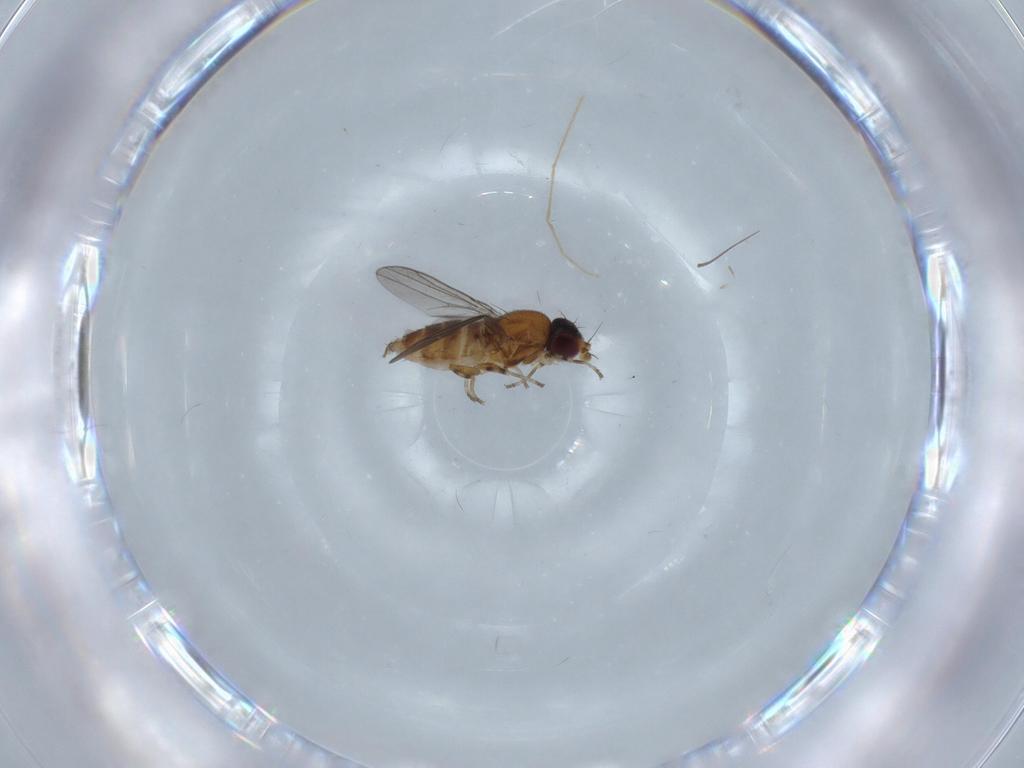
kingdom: Animalia
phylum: Arthropoda
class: Insecta
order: Diptera
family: Chloropidae
